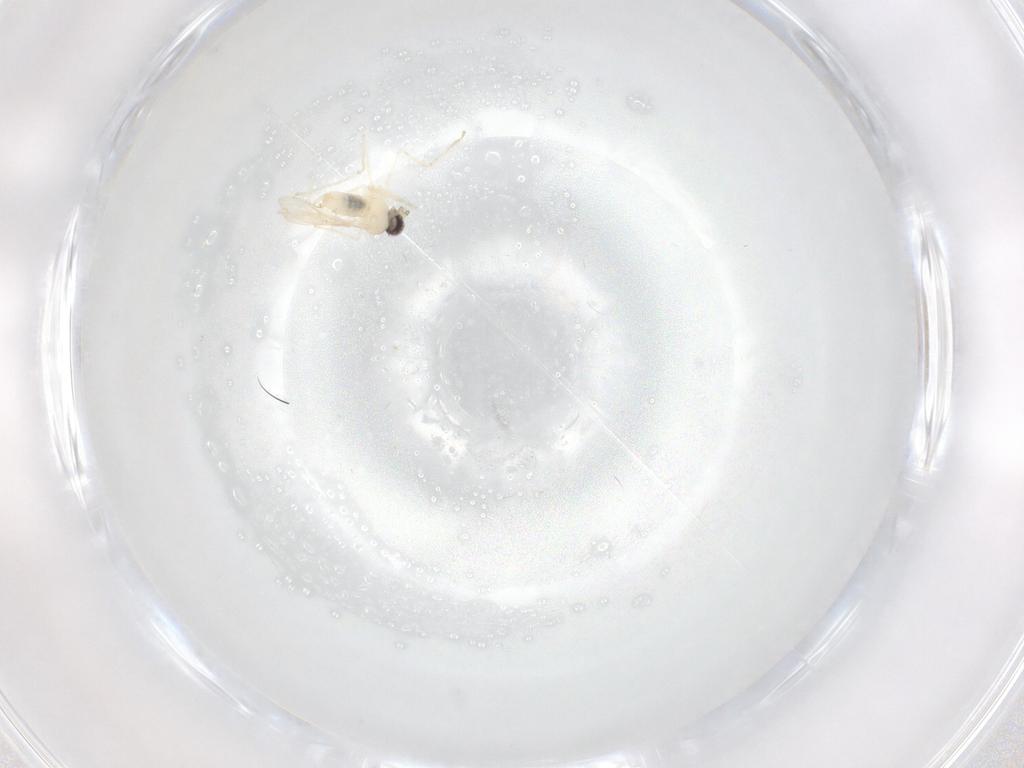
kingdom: Animalia
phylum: Arthropoda
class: Insecta
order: Diptera
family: Cecidomyiidae
